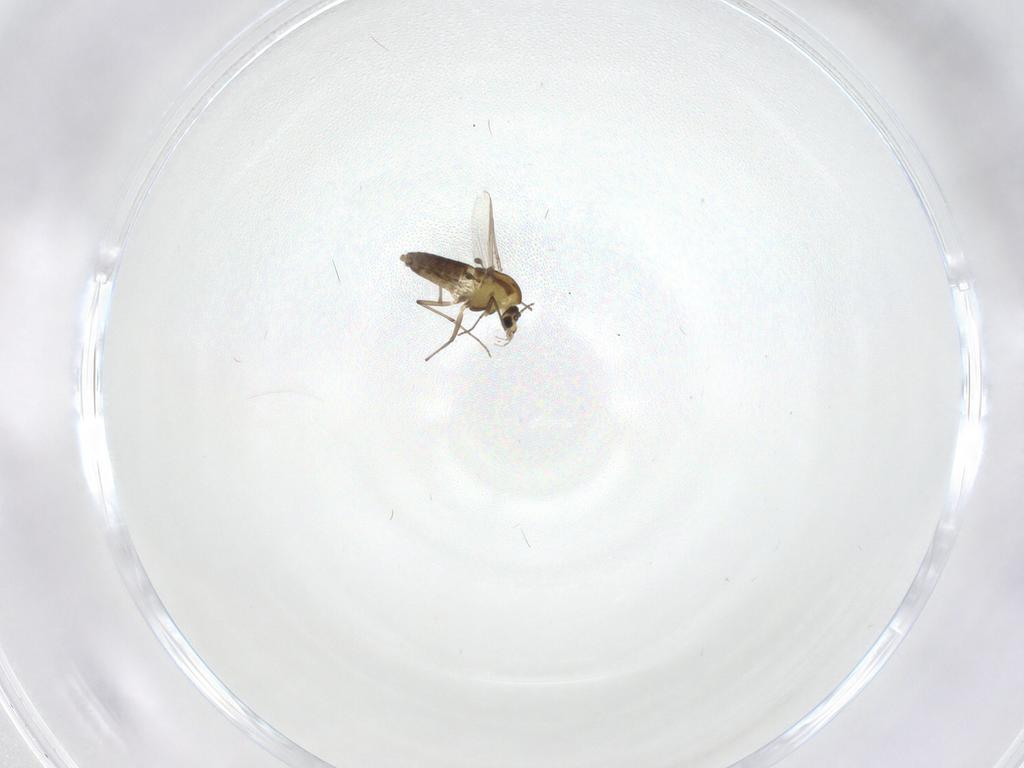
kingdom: Animalia
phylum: Arthropoda
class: Insecta
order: Diptera
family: Chironomidae
